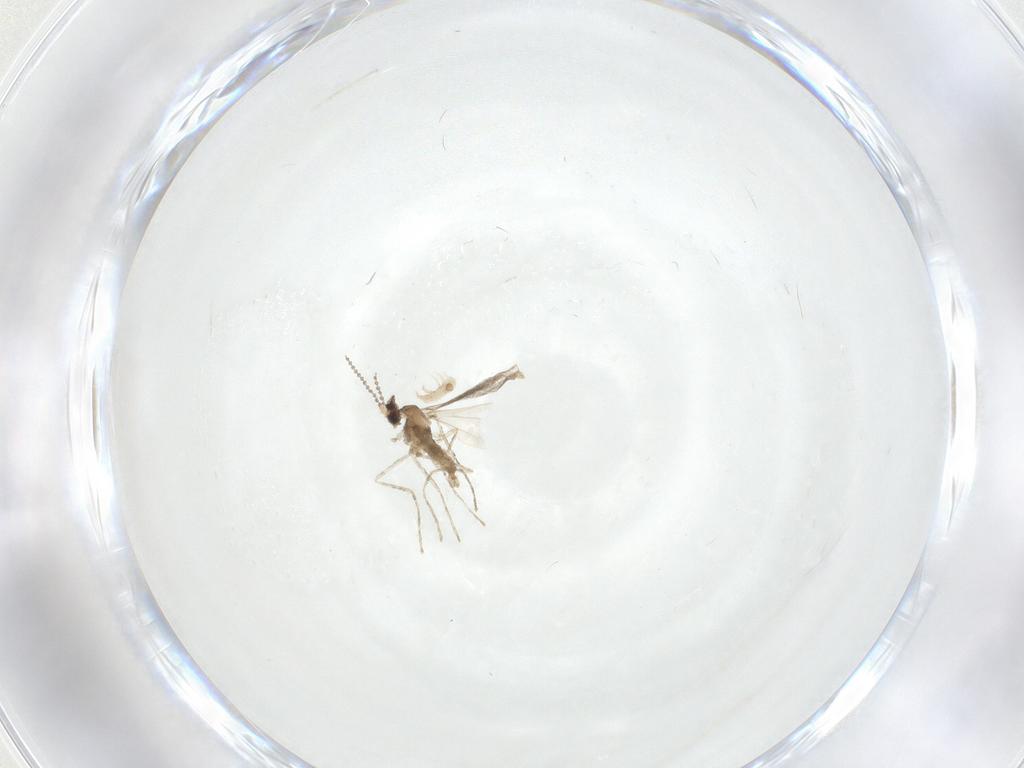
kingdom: Animalia
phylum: Arthropoda
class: Insecta
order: Diptera
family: Cecidomyiidae
